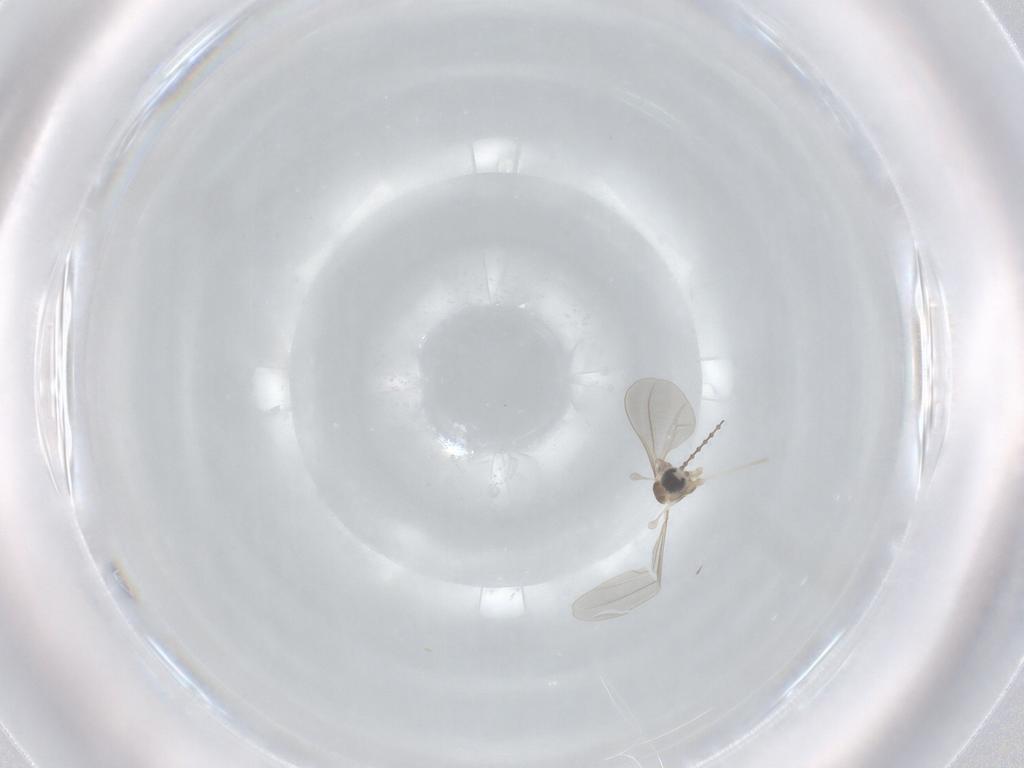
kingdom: Animalia
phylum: Arthropoda
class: Insecta
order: Diptera
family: Cecidomyiidae
